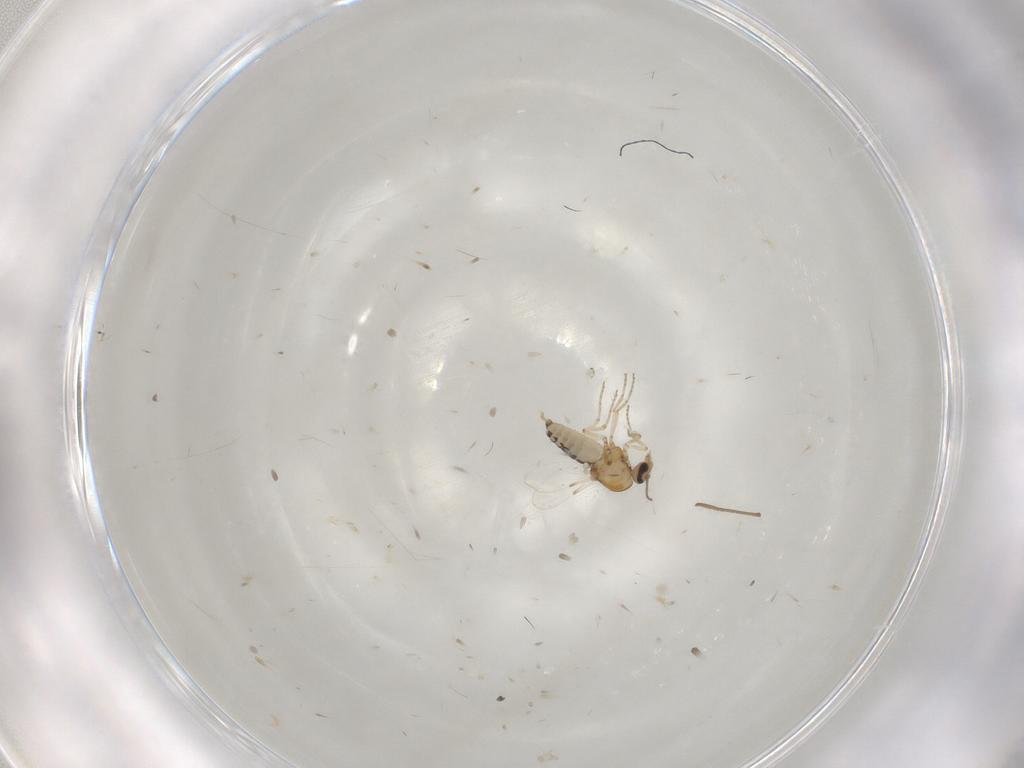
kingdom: Animalia
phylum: Arthropoda
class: Insecta
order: Diptera
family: Ceratopogonidae
